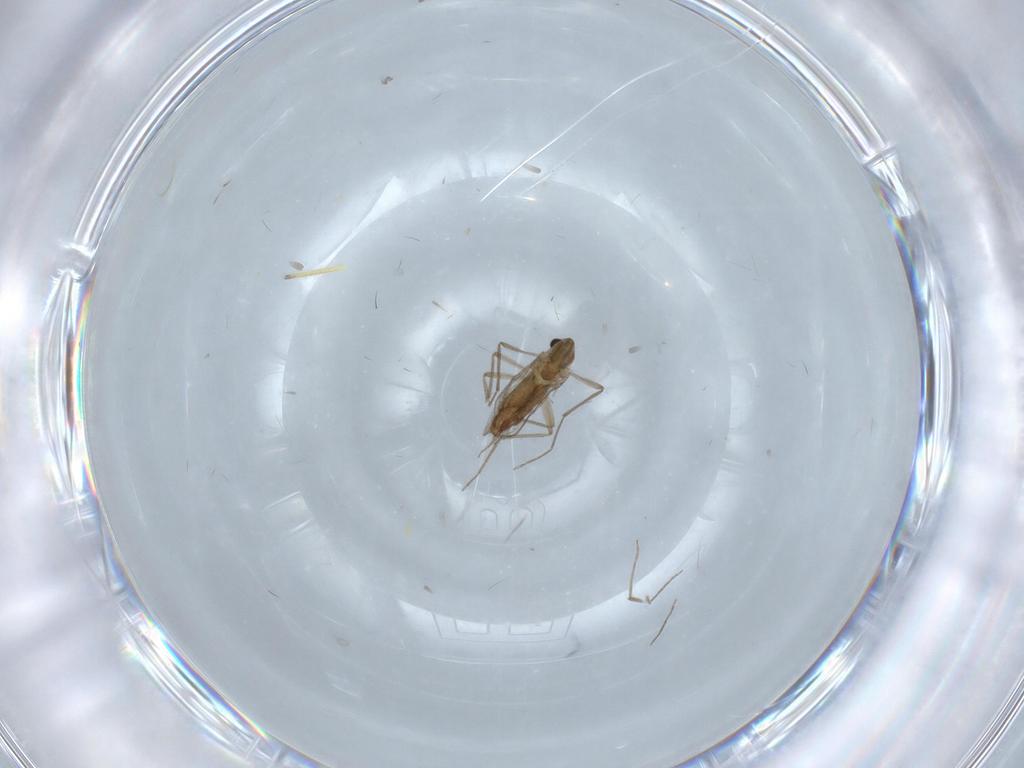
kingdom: Animalia
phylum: Arthropoda
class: Insecta
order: Diptera
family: Chironomidae
